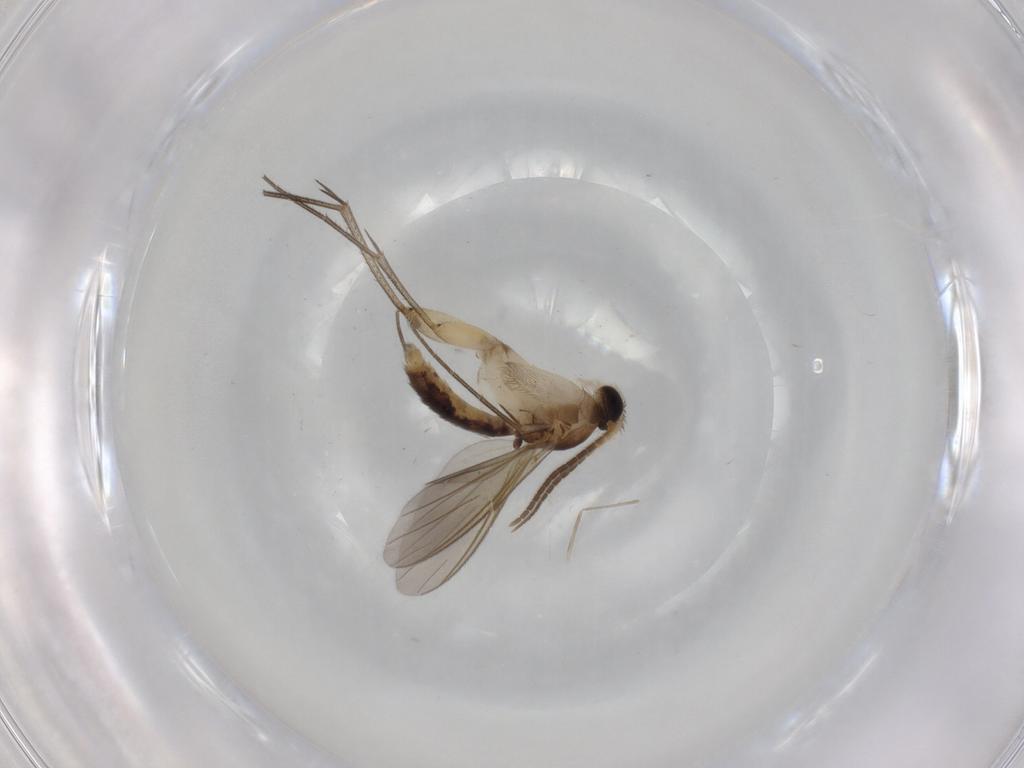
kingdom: Animalia
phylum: Arthropoda
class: Insecta
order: Diptera
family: Mycetophilidae
